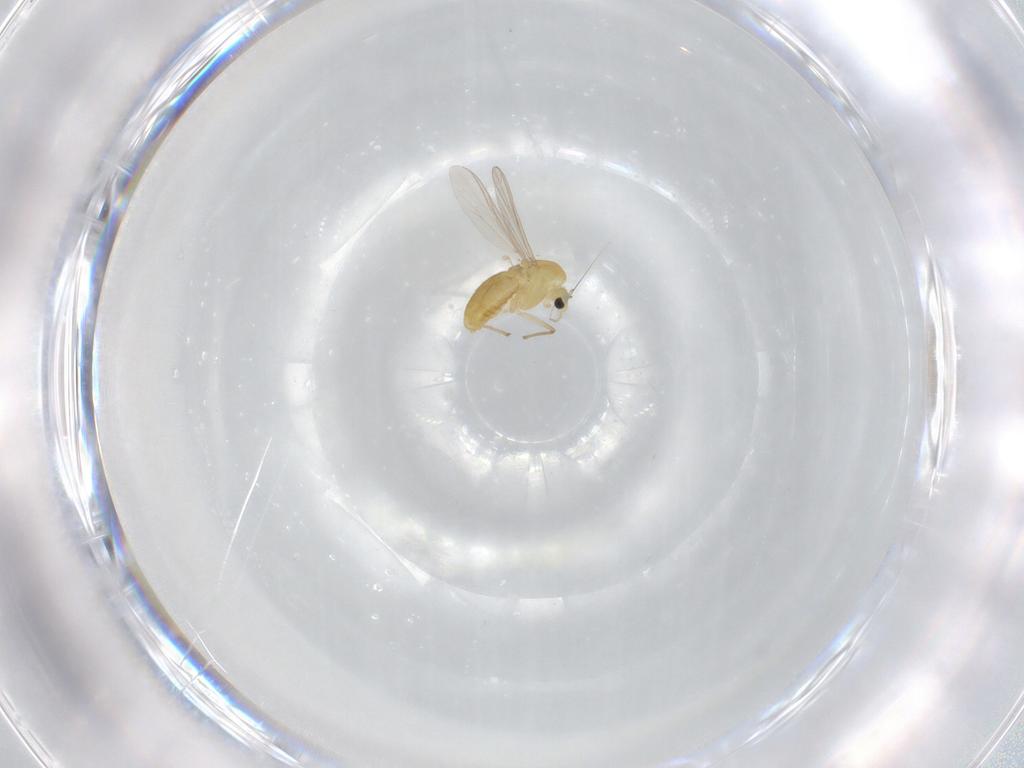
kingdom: Animalia
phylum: Arthropoda
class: Insecta
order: Diptera
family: Chironomidae
